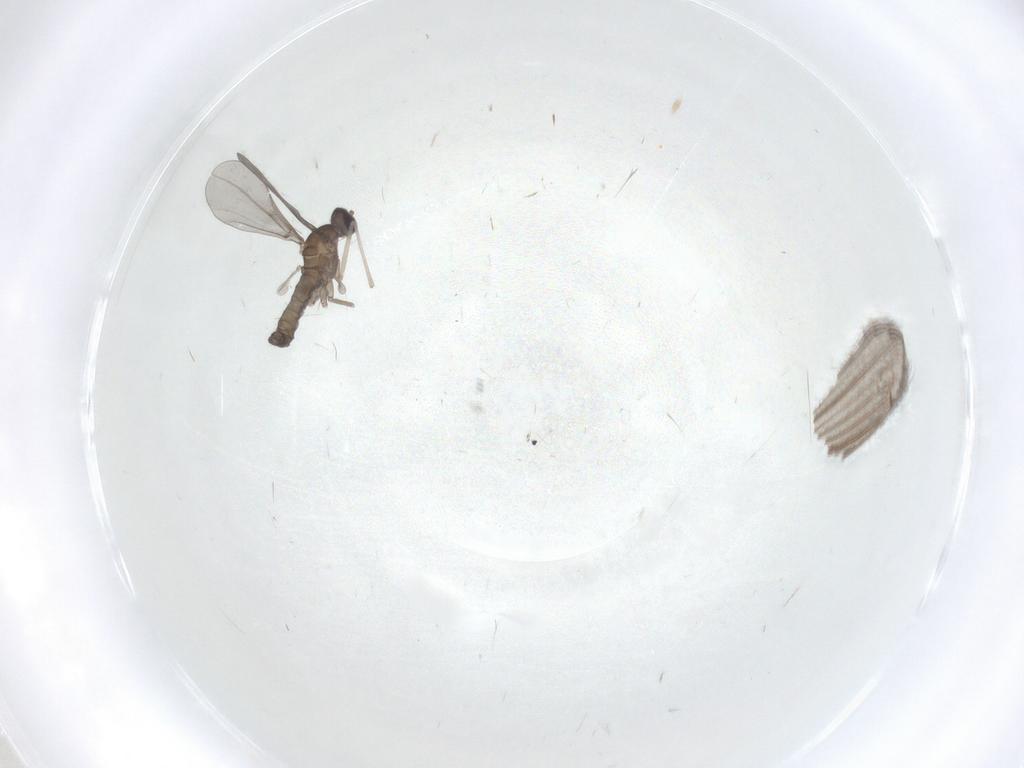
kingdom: Animalia
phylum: Arthropoda
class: Insecta
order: Diptera
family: Cecidomyiidae
